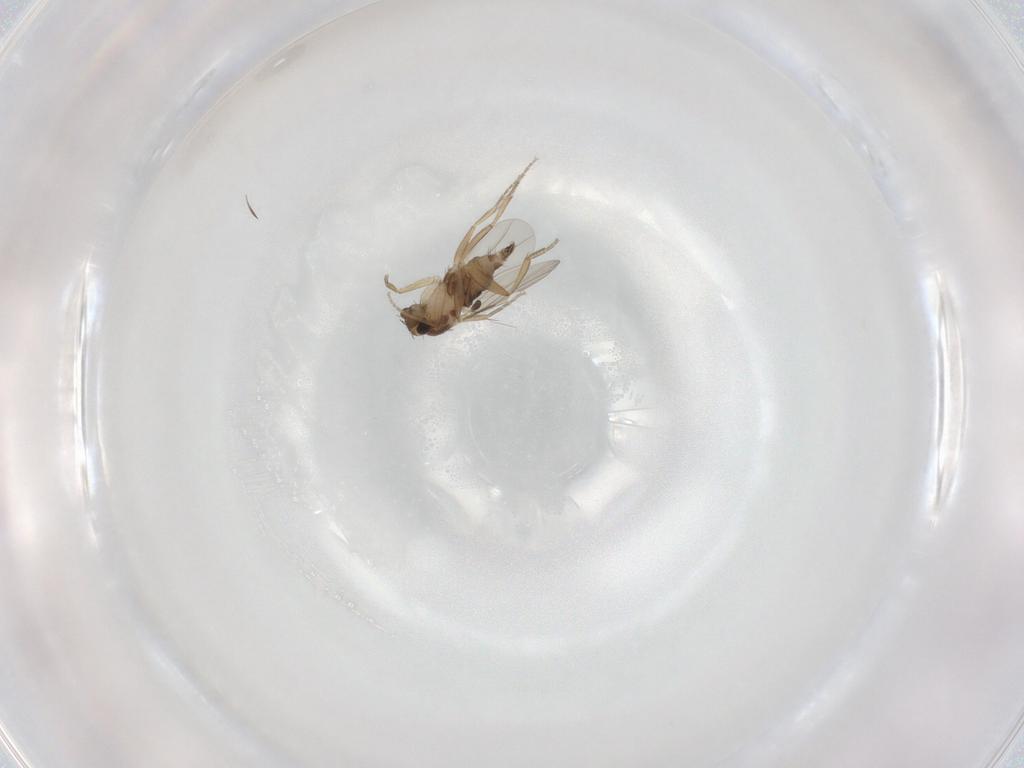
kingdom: Animalia
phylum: Arthropoda
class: Insecta
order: Diptera
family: Phoridae
